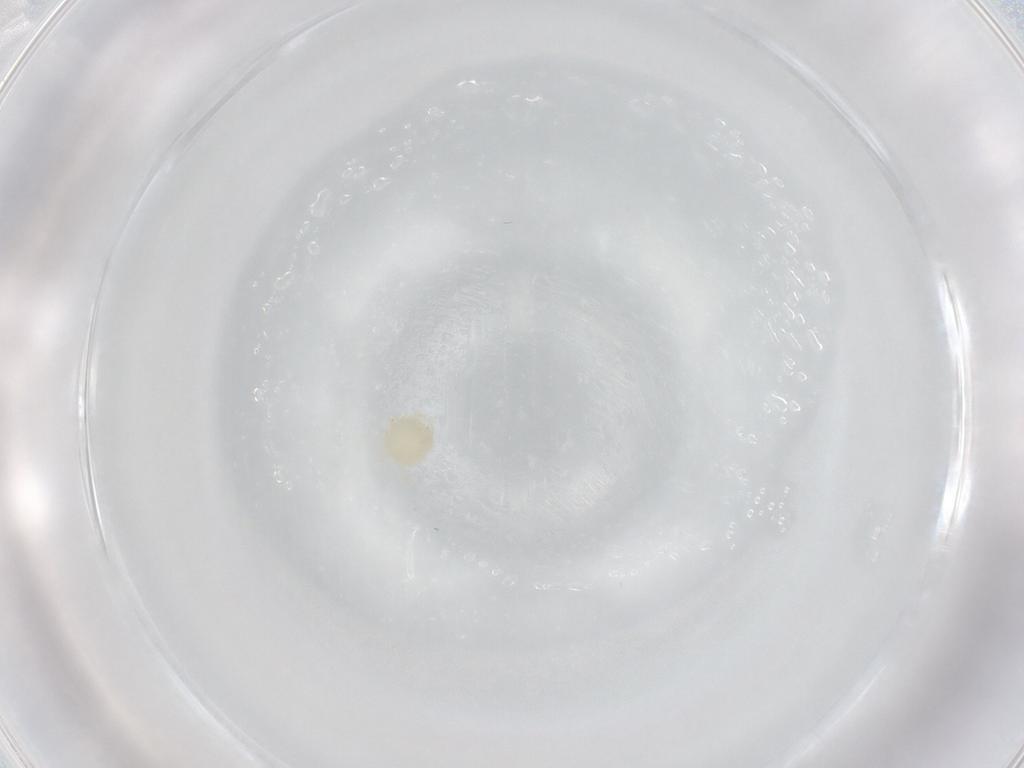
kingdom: Animalia
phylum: Arthropoda
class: Arachnida
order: Trombidiformes
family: Hydryphantidae
